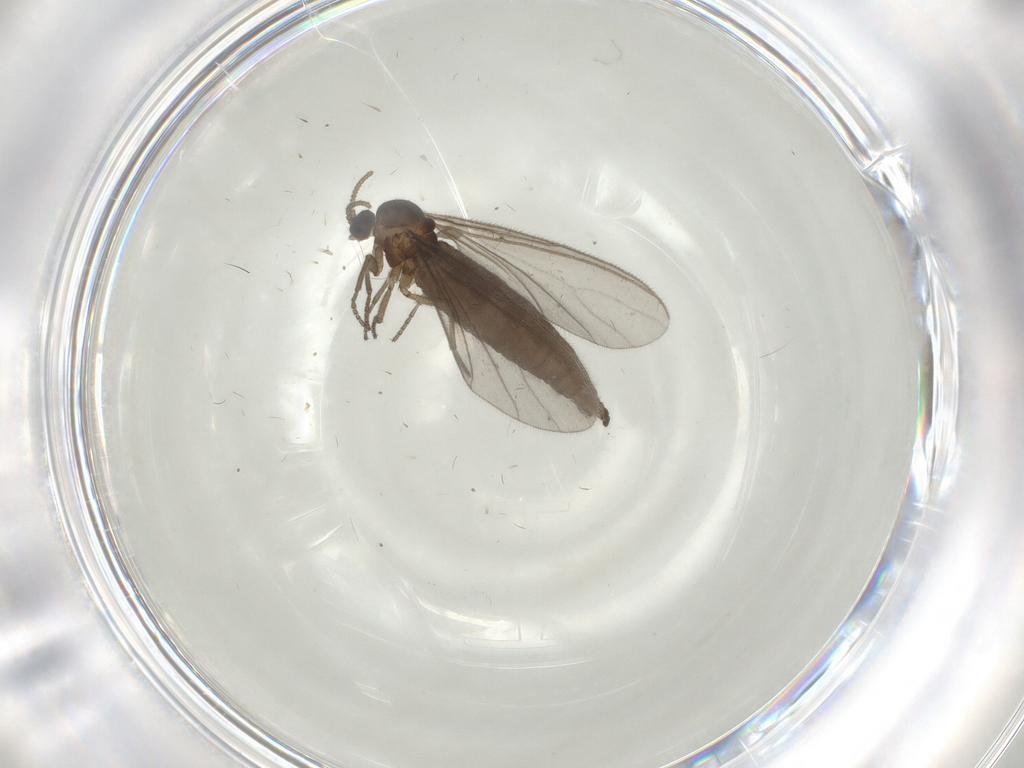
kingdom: Animalia
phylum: Arthropoda
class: Insecta
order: Diptera
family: Sciaridae
